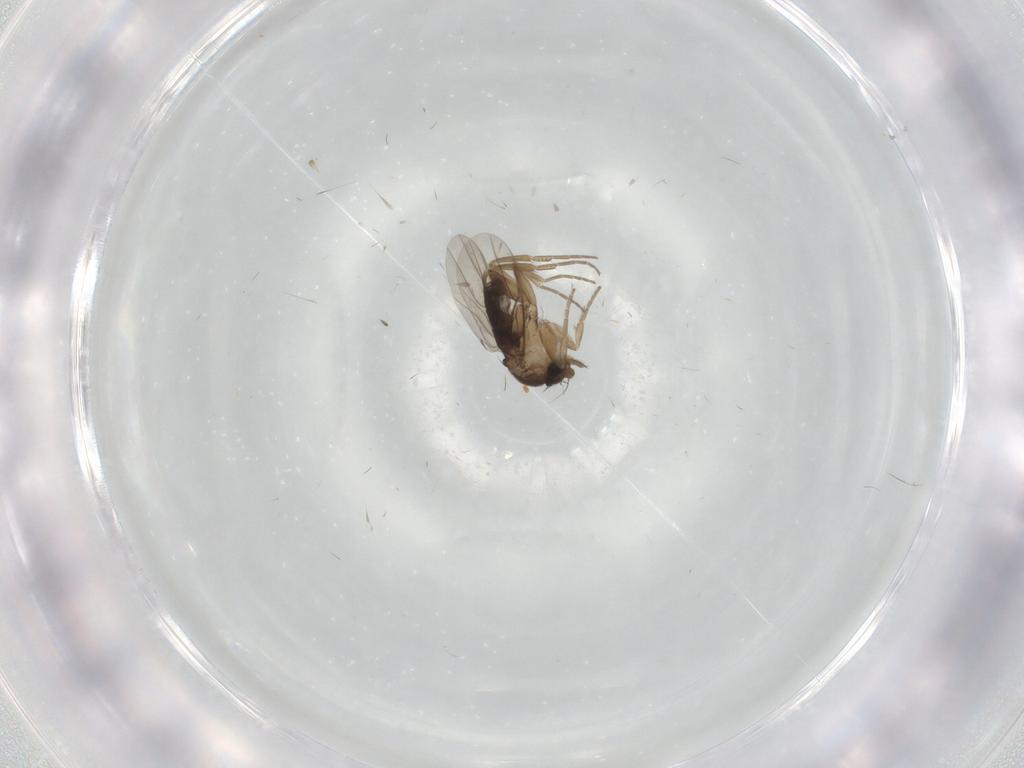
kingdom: Animalia
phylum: Arthropoda
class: Insecta
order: Diptera
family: Phoridae
